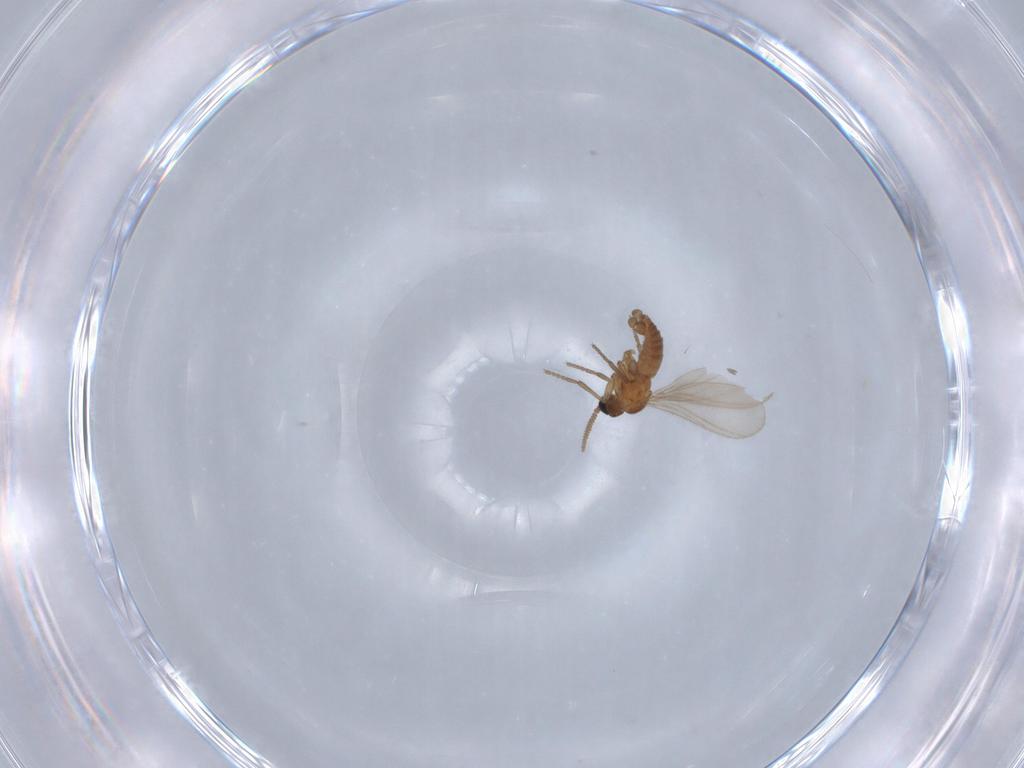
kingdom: Animalia
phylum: Arthropoda
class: Insecta
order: Diptera
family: Sciaridae
